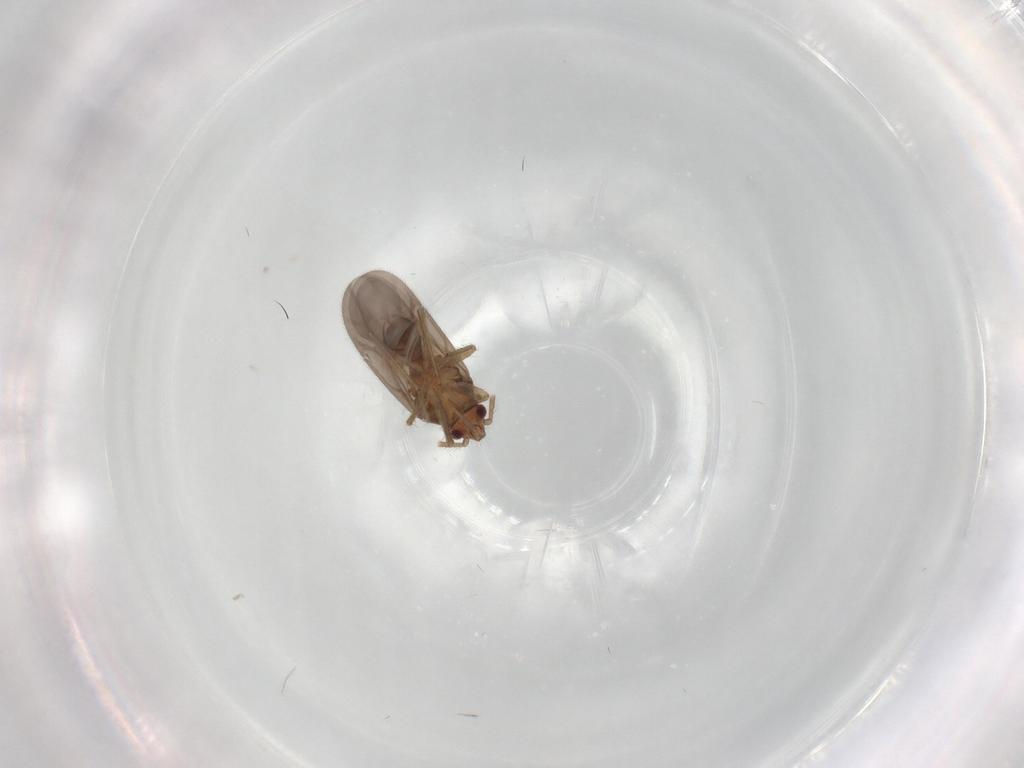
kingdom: Animalia
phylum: Arthropoda
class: Insecta
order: Hemiptera
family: Ceratocombidae
